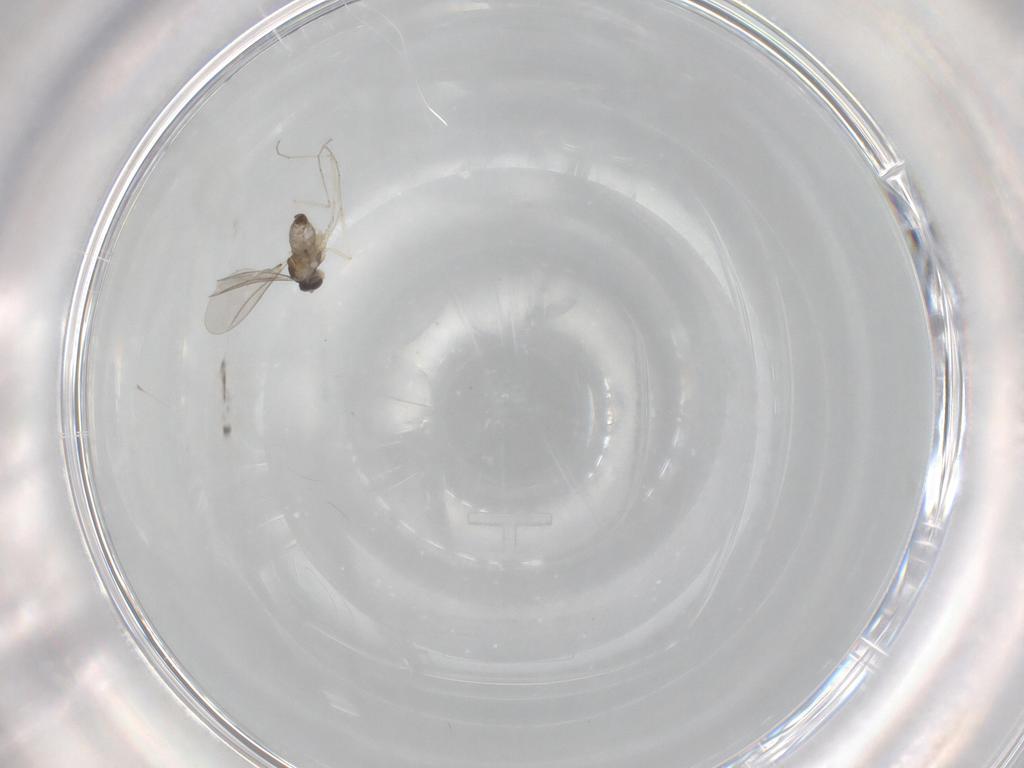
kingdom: Animalia
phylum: Arthropoda
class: Insecta
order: Diptera
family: Cecidomyiidae
